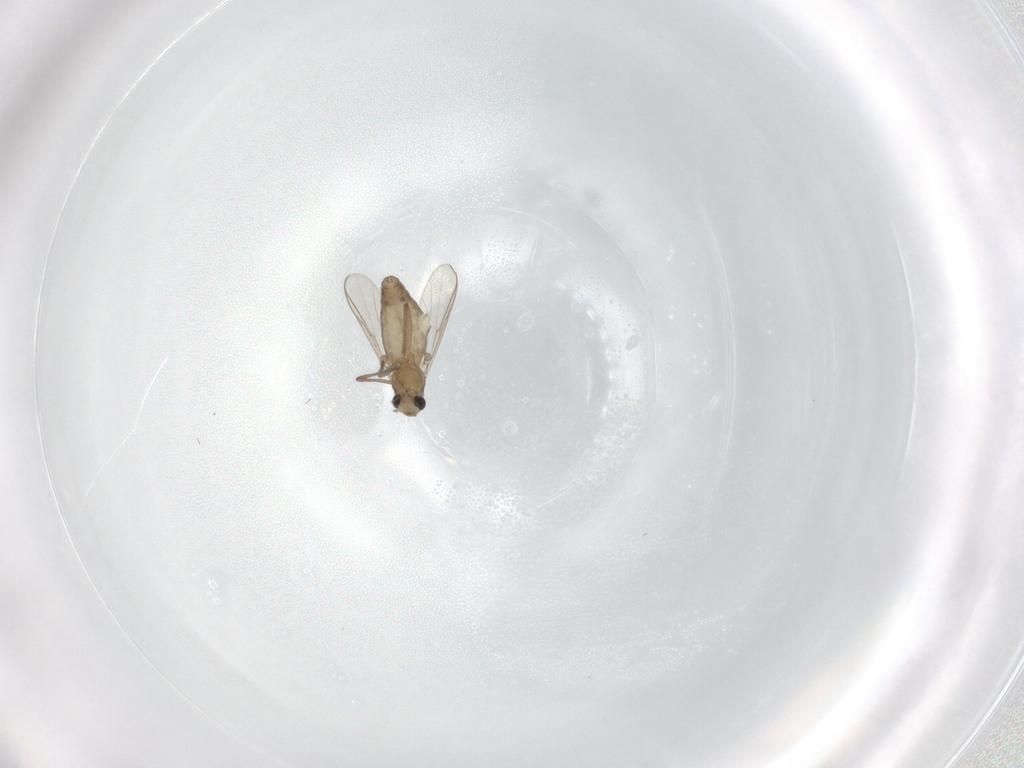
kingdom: Animalia
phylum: Arthropoda
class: Insecta
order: Diptera
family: Chironomidae
